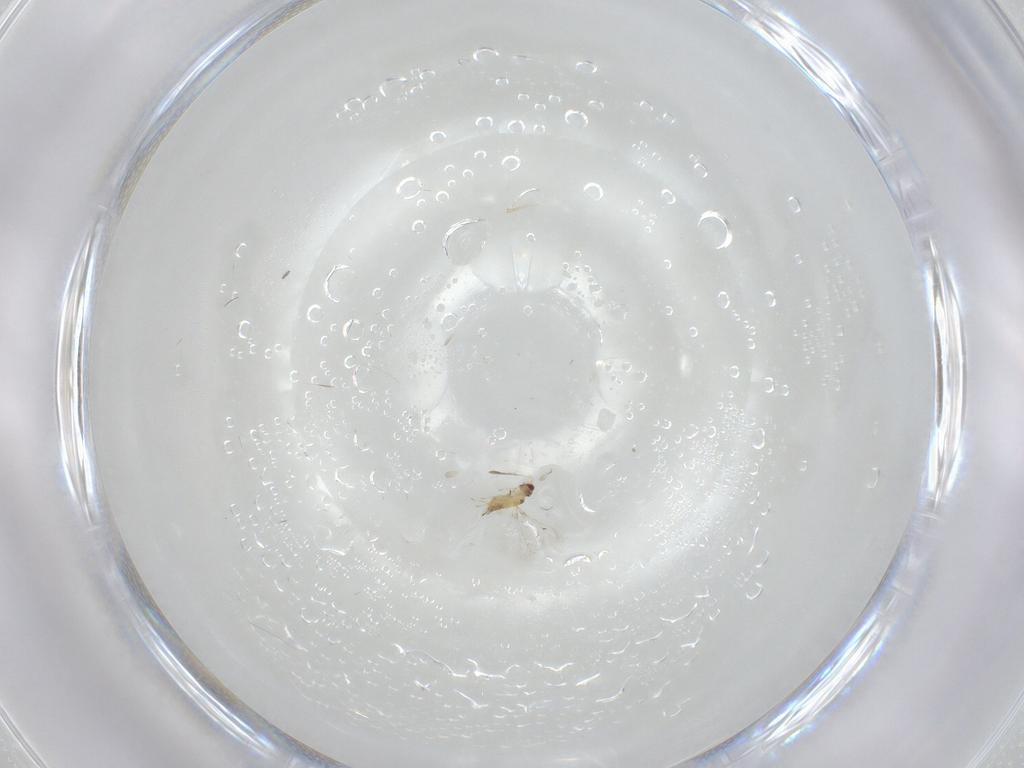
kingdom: Animalia
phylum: Arthropoda
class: Insecta
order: Hymenoptera
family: Mymaridae
